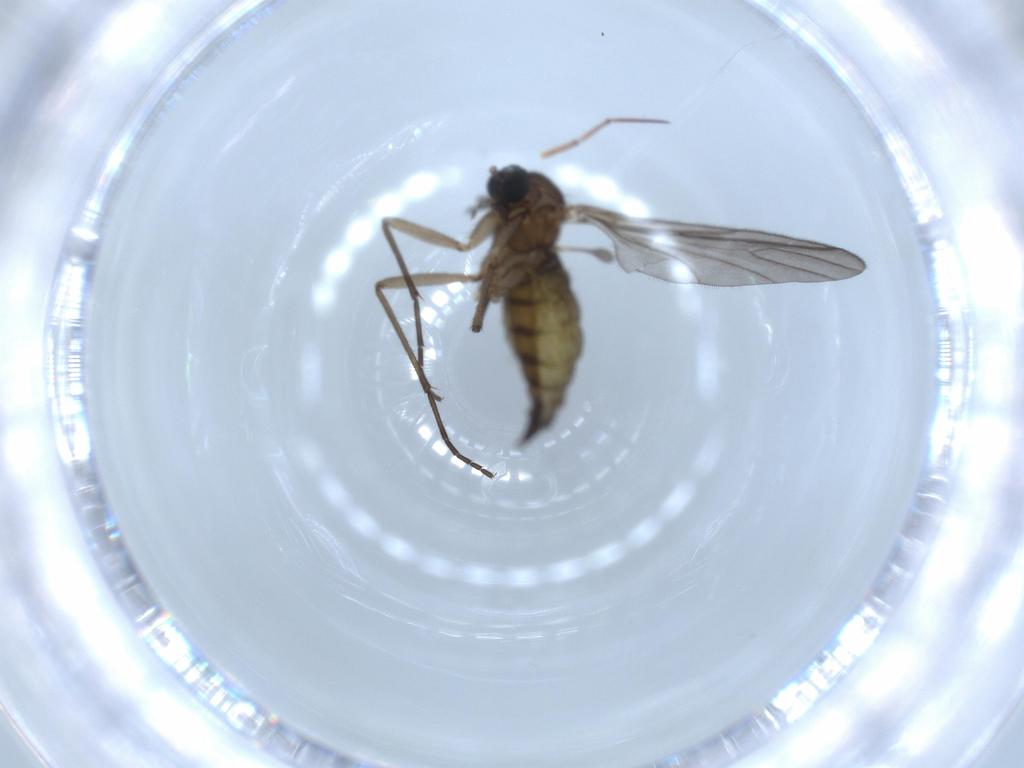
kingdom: Animalia
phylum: Arthropoda
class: Insecta
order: Diptera
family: Sciaridae
